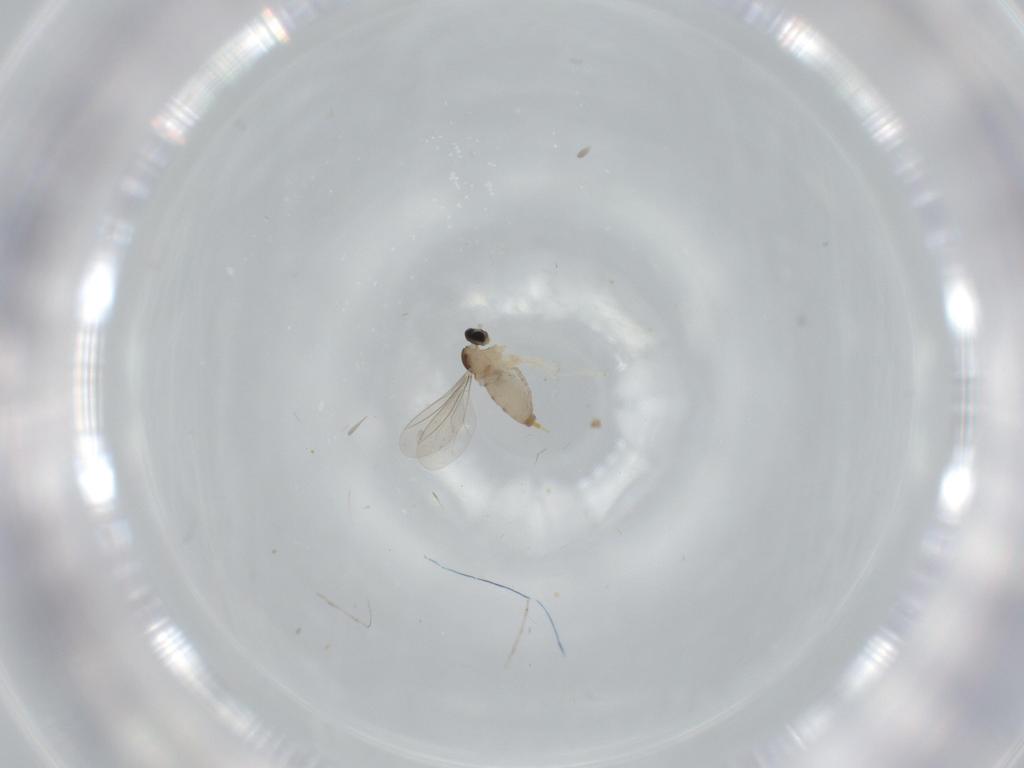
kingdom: Animalia
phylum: Arthropoda
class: Insecta
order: Diptera
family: Cecidomyiidae
